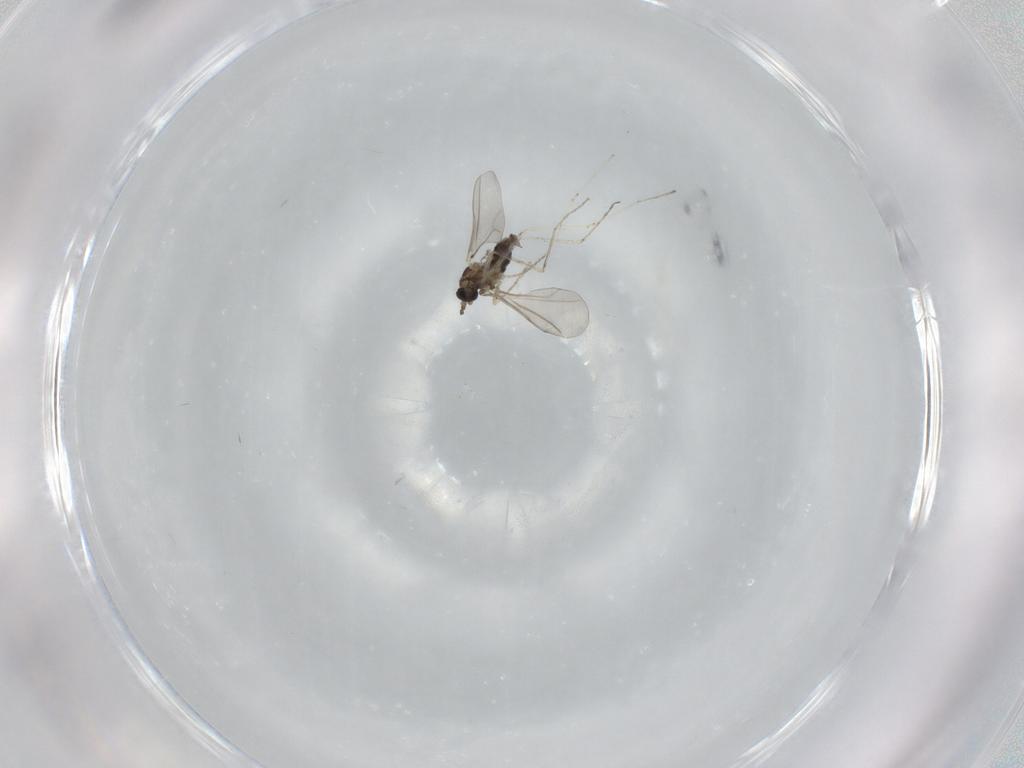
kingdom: Animalia
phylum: Arthropoda
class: Insecta
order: Diptera
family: Cecidomyiidae
